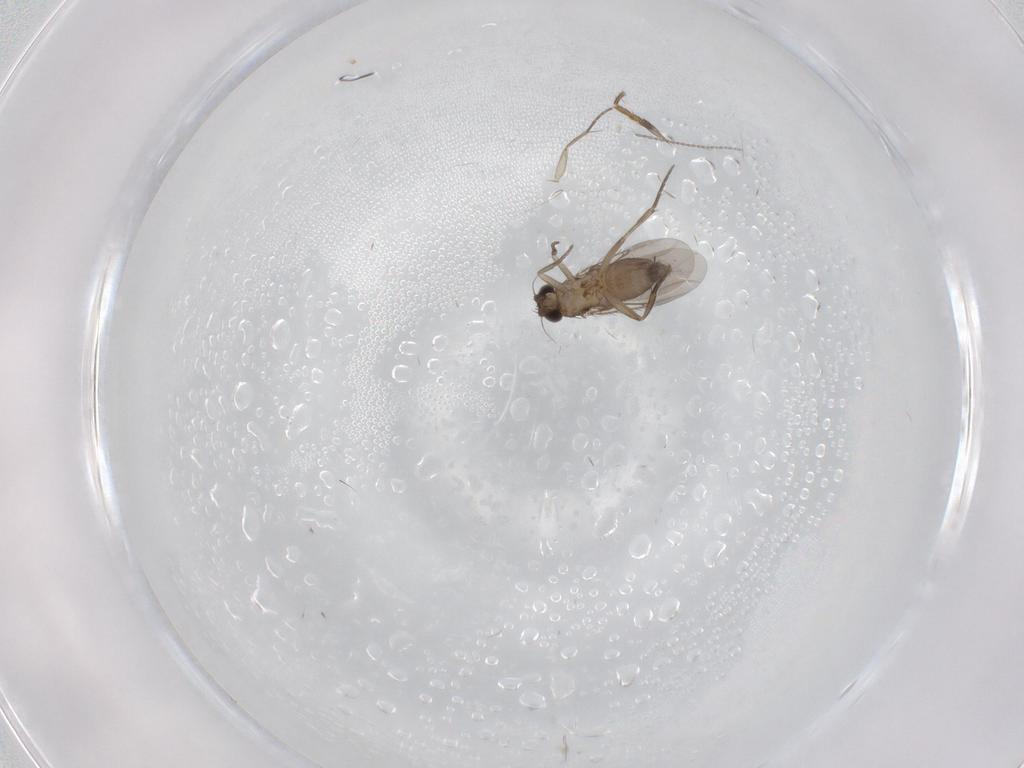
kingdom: Animalia
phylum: Arthropoda
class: Insecta
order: Diptera
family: Phoridae
